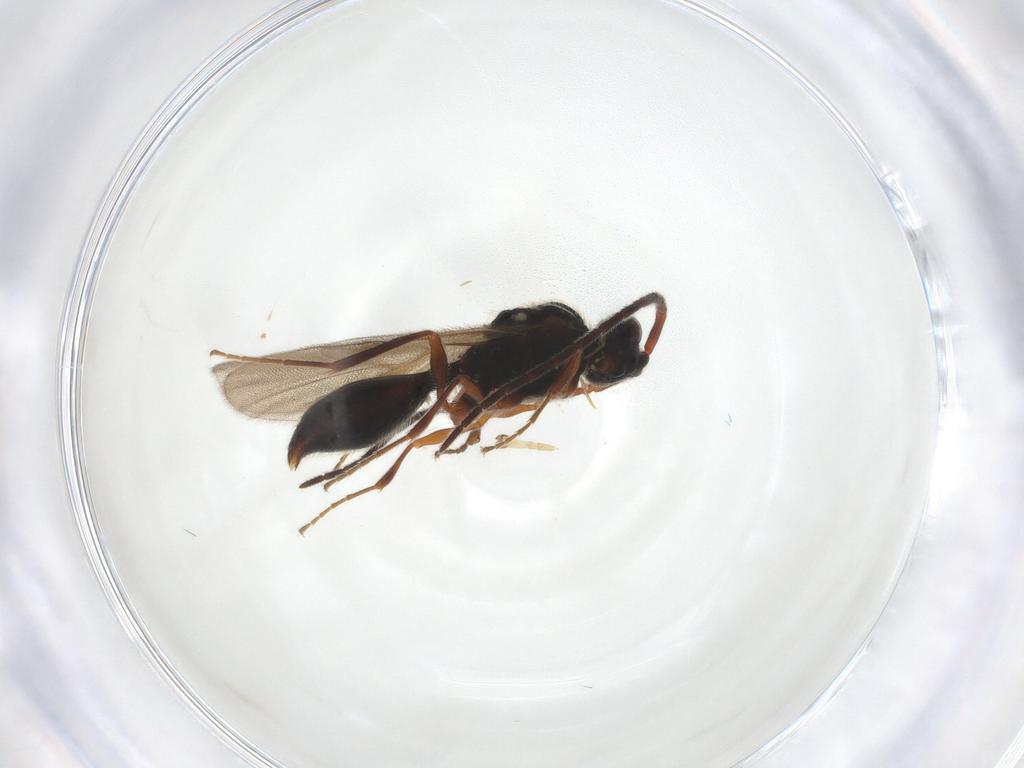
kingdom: Animalia
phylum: Arthropoda
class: Insecta
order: Hymenoptera
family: Ichneumonidae
